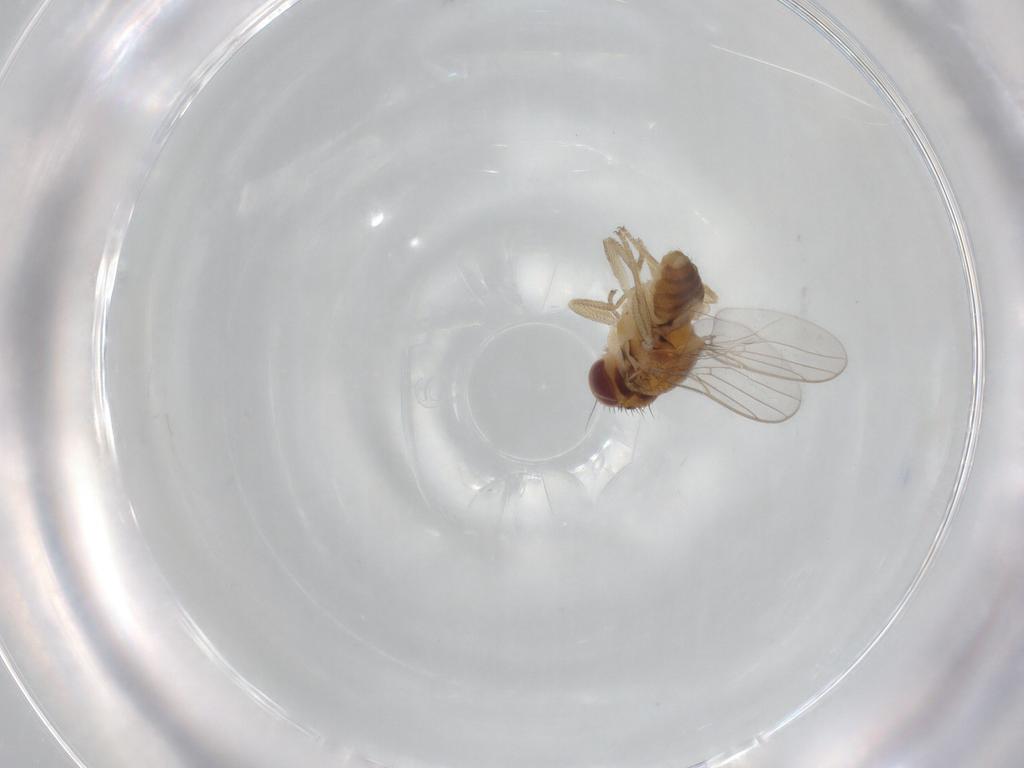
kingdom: Animalia
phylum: Arthropoda
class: Insecta
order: Diptera
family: Chloropidae
